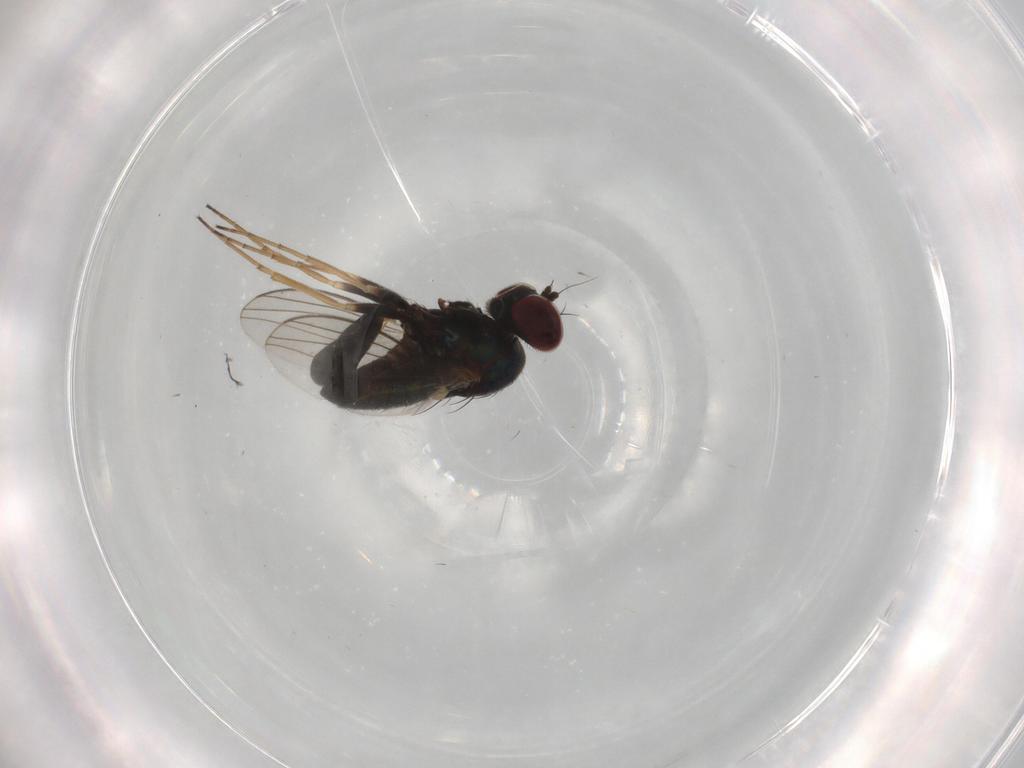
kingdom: Animalia
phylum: Arthropoda
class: Insecta
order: Diptera
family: Dolichopodidae
